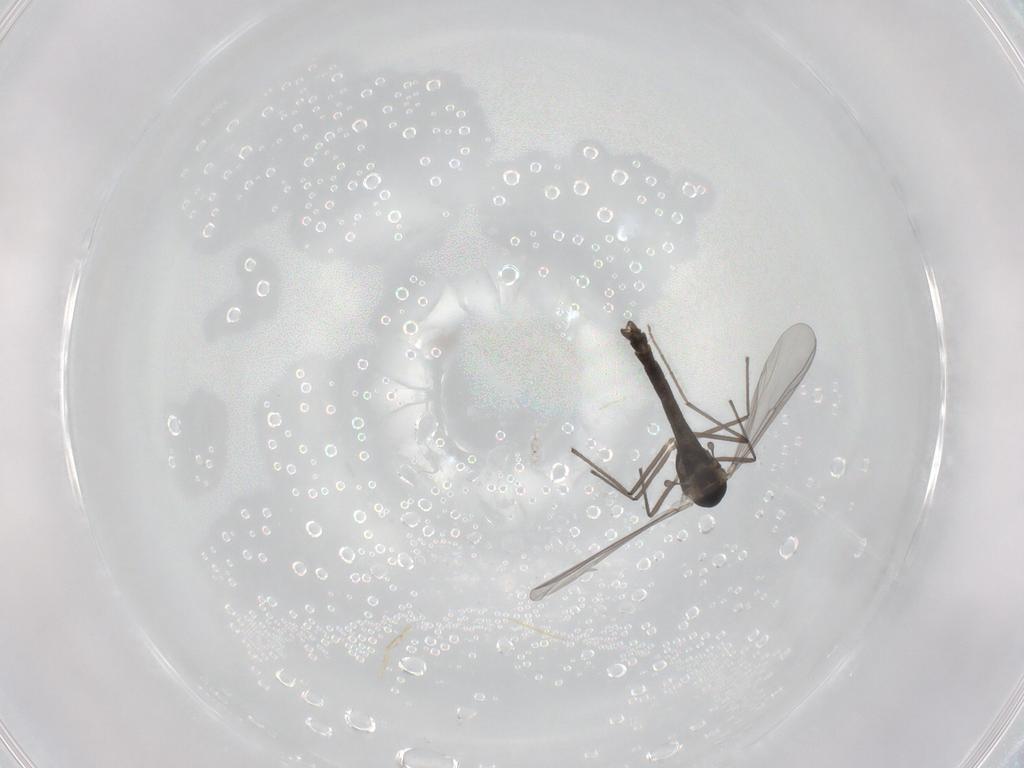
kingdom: Animalia
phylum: Arthropoda
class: Insecta
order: Diptera
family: Chironomidae
